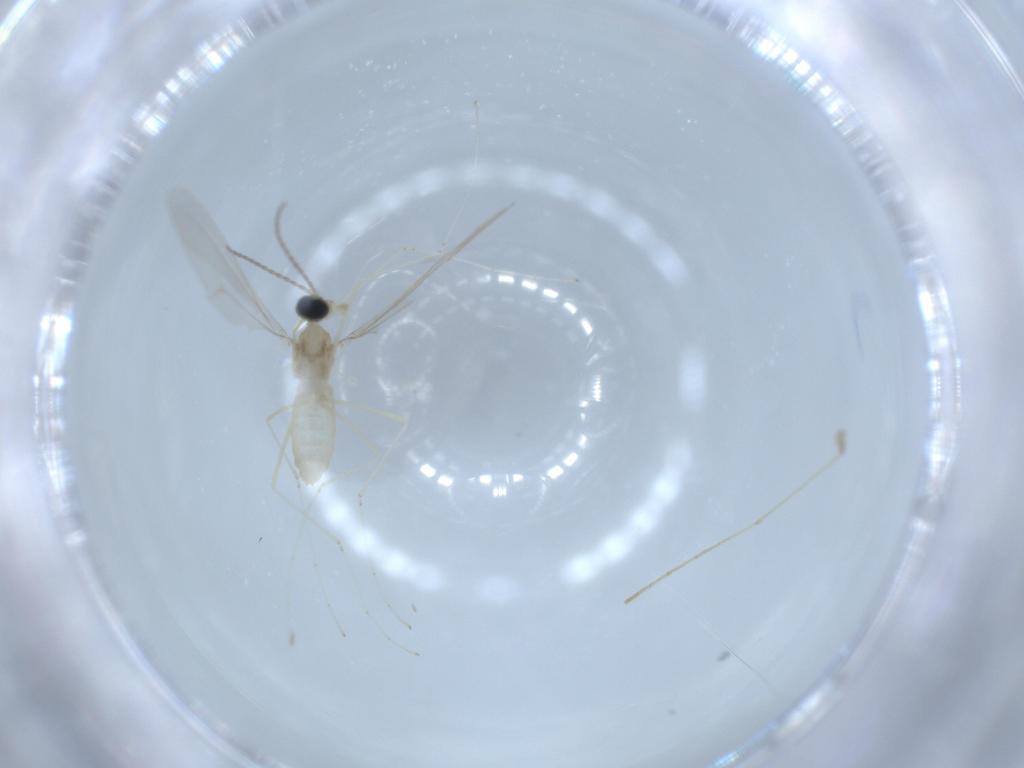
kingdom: Animalia
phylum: Arthropoda
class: Insecta
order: Diptera
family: Cecidomyiidae
